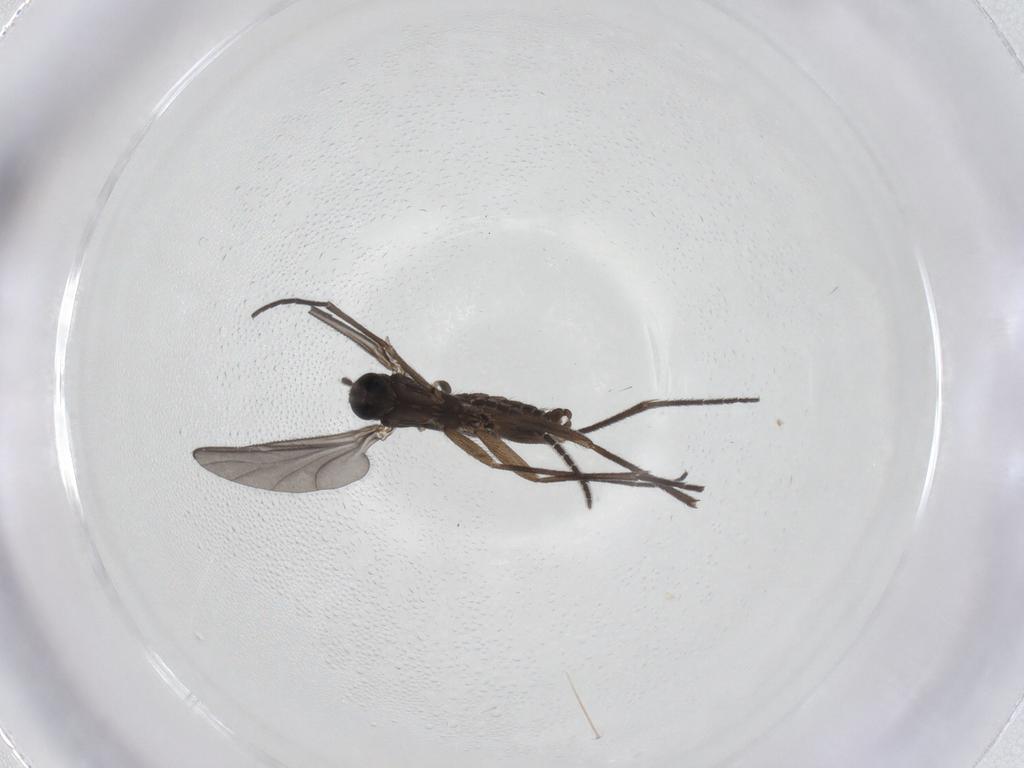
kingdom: Animalia
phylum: Arthropoda
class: Insecta
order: Diptera
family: Sciaridae
